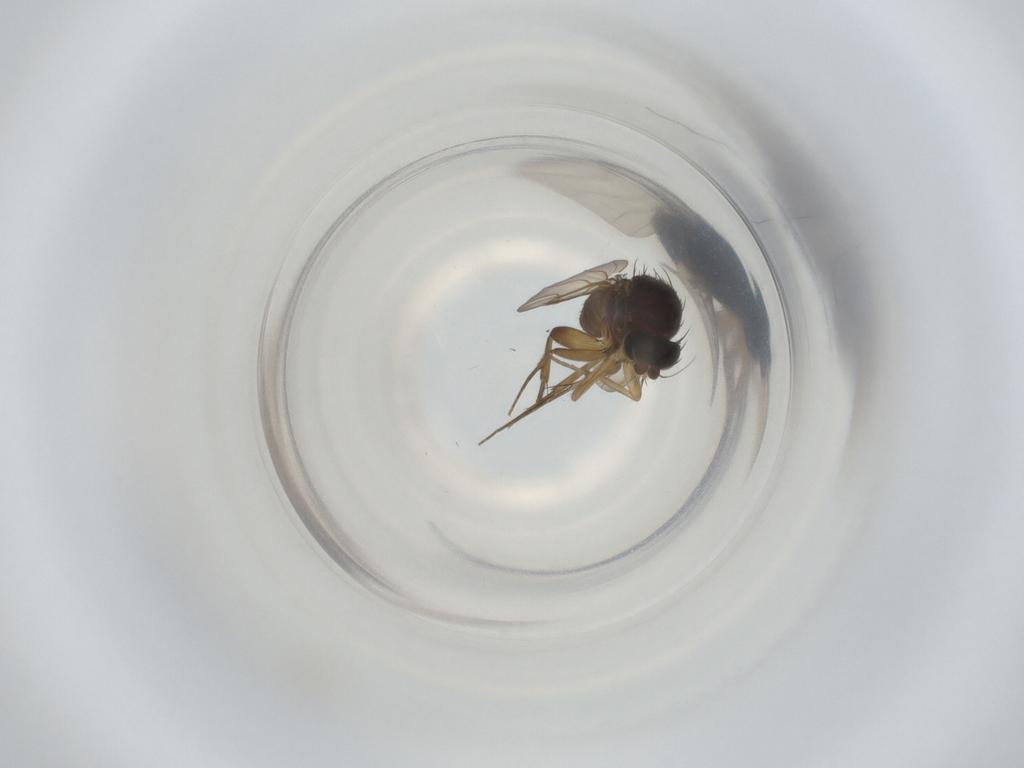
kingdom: Animalia
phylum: Arthropoda
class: Insecta
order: Diptera
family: Phoridae
